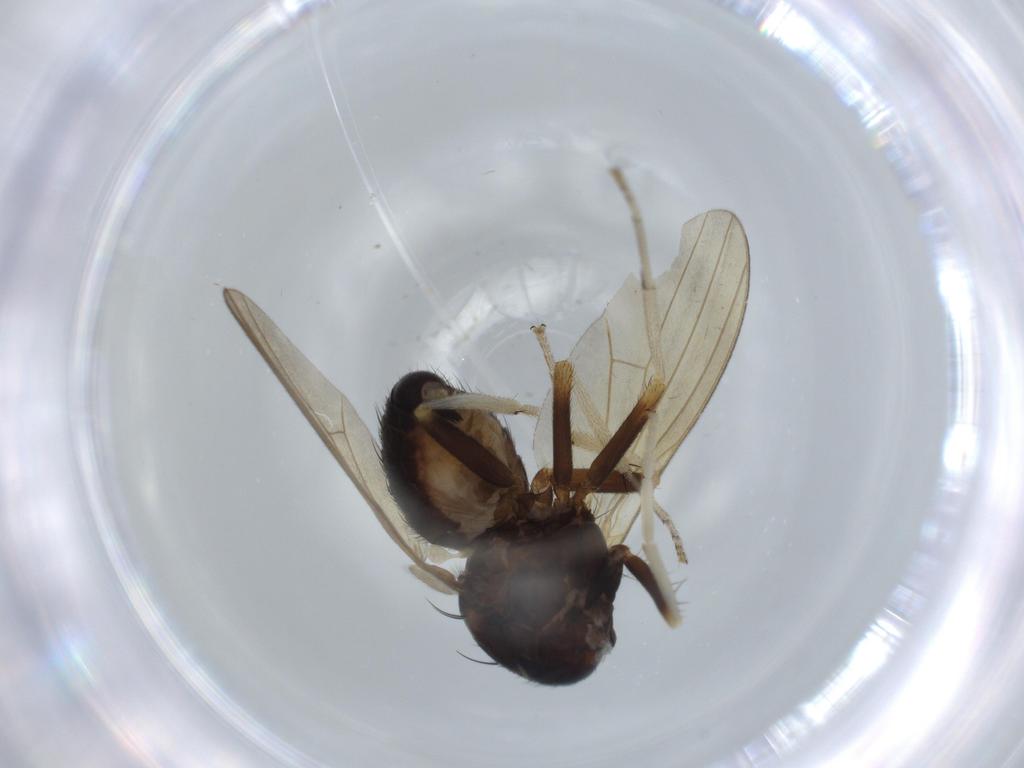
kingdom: Animalia
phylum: Arthropoda
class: Insecta
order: Diptera
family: Lauxaniidae
